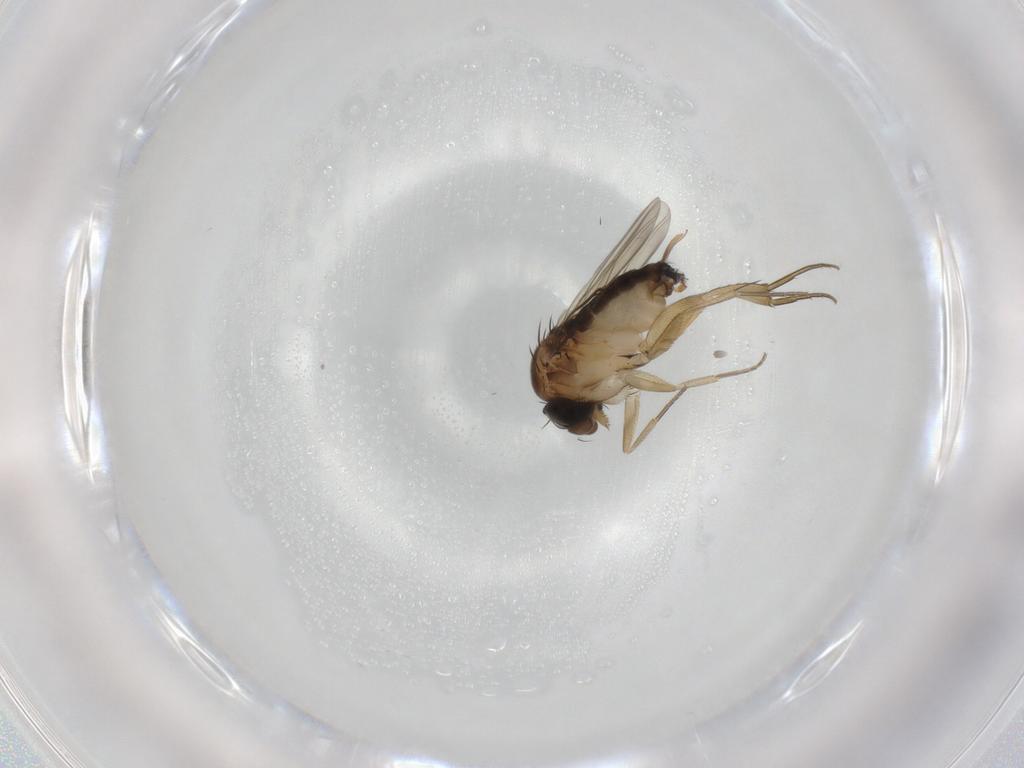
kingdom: Animalia
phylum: Arthropoda
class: Insecta
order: Diptera
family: Phoridae
